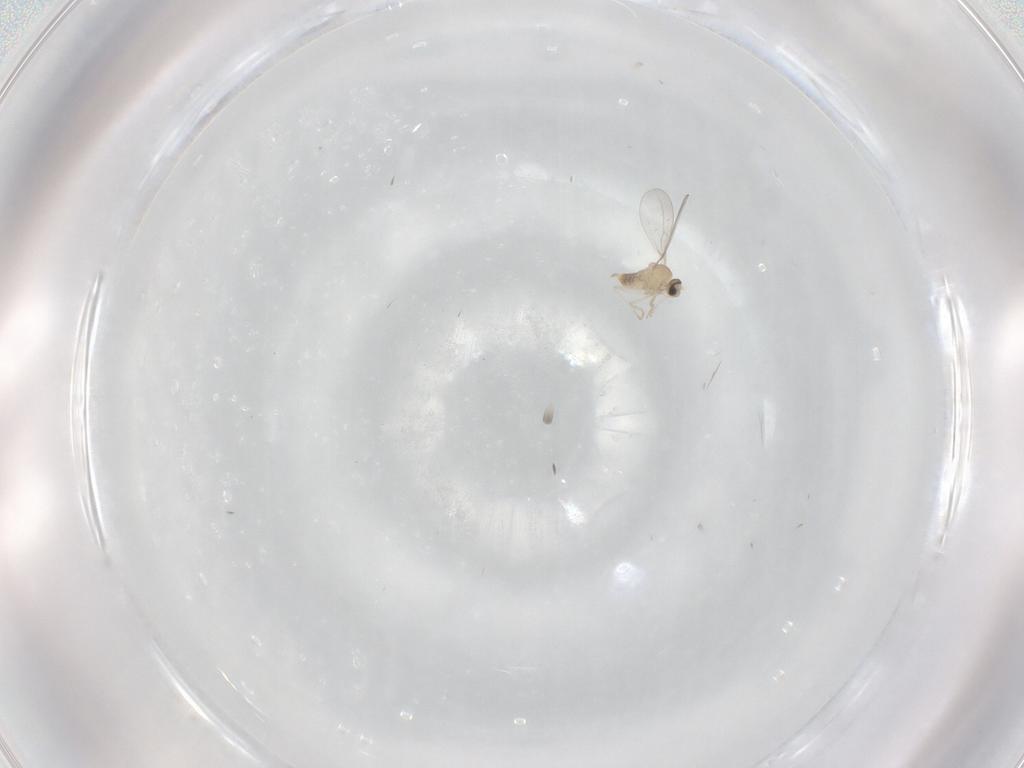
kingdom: Animalia
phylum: Arthropoda
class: Insecta
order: Diptera
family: Cecidomyiidae
